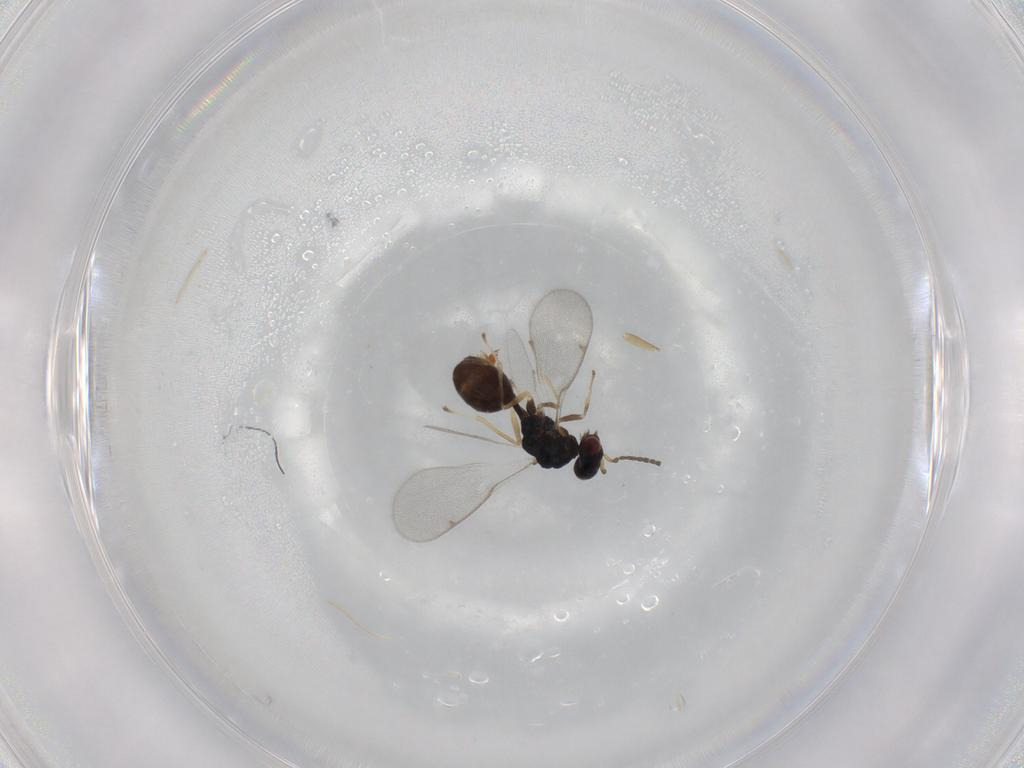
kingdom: Animalia
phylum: Arthropoda
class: Insecta
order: Diptera
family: Dolichopodidae
